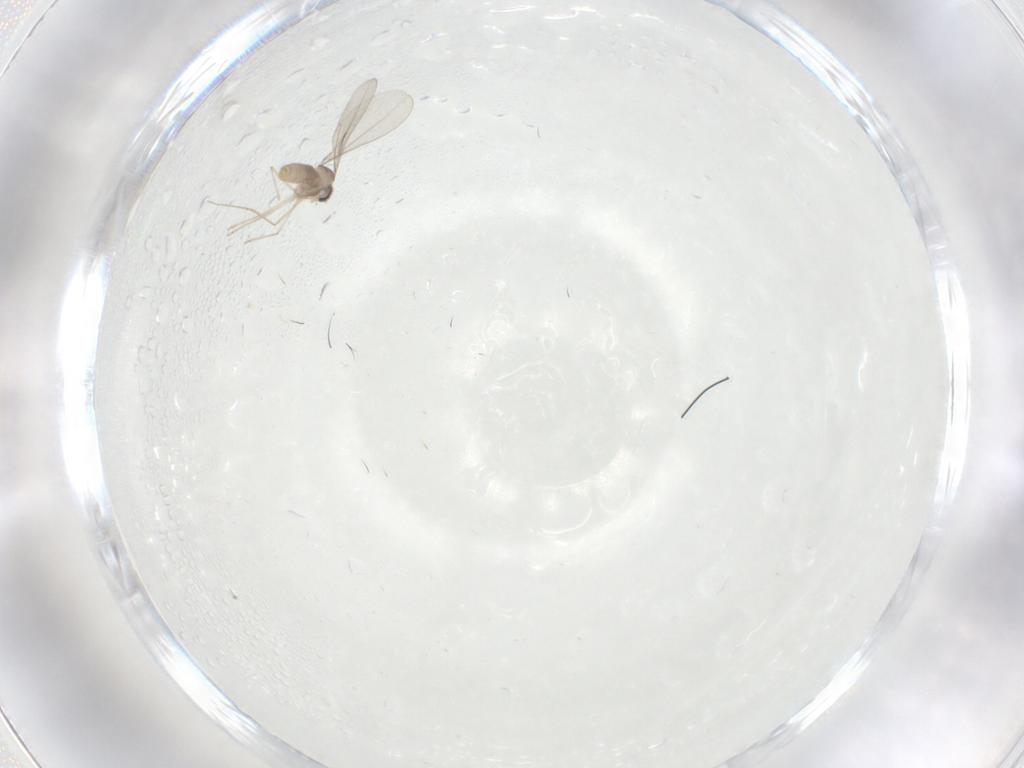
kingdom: Animalia
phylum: Arthropoda
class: Insecta
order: Diptera
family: Cecidomyiidae
